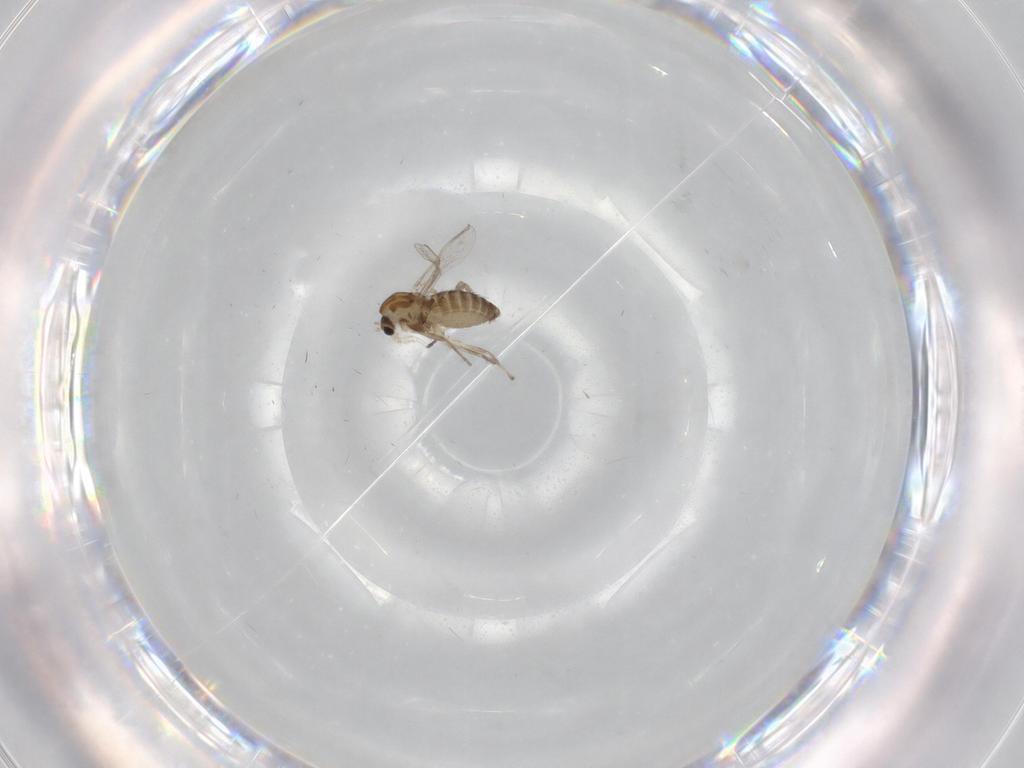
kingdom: Animalia
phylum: Arthropoda
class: Insecta
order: Diptera
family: Chironomidae
